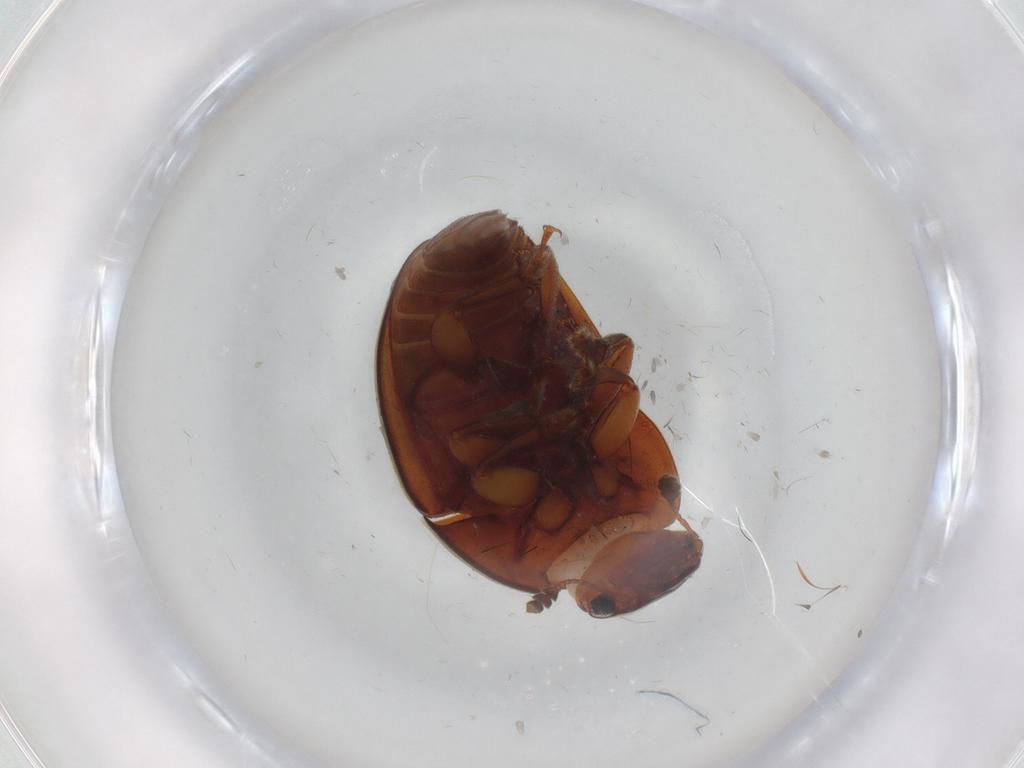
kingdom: Animalia
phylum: Arthropoda
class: Insecta
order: Coleoptera
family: Nitidulidae
